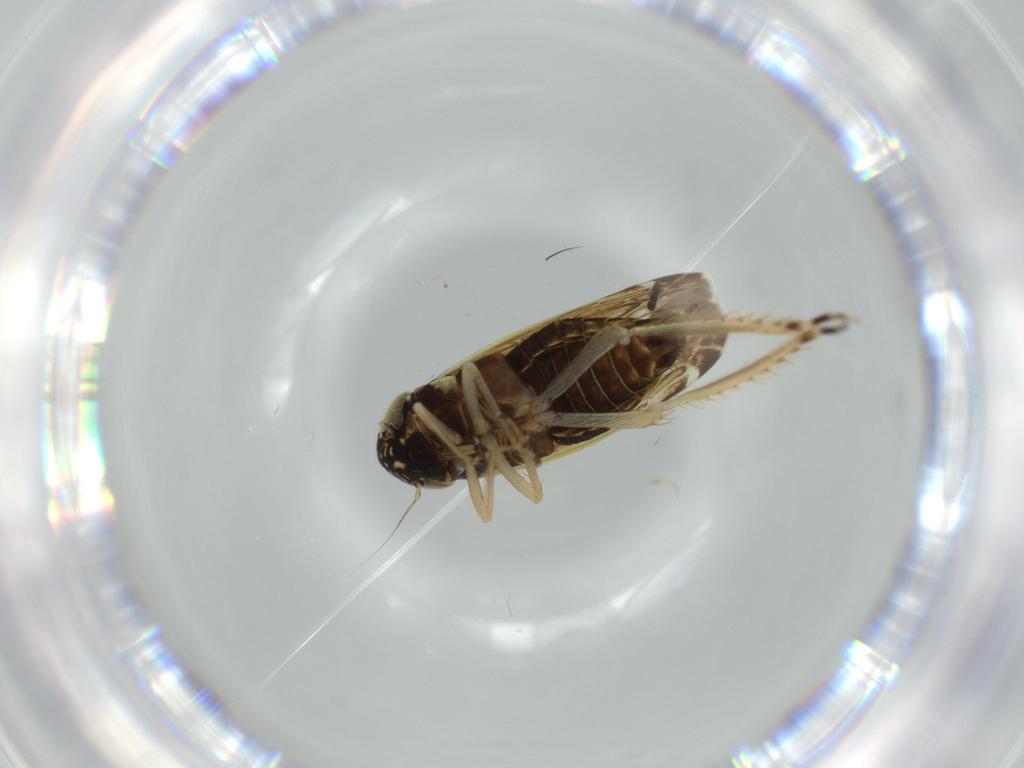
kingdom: Animalia
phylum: Arthropoda
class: Insecta
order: Hemiptera
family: Cicadellidae
